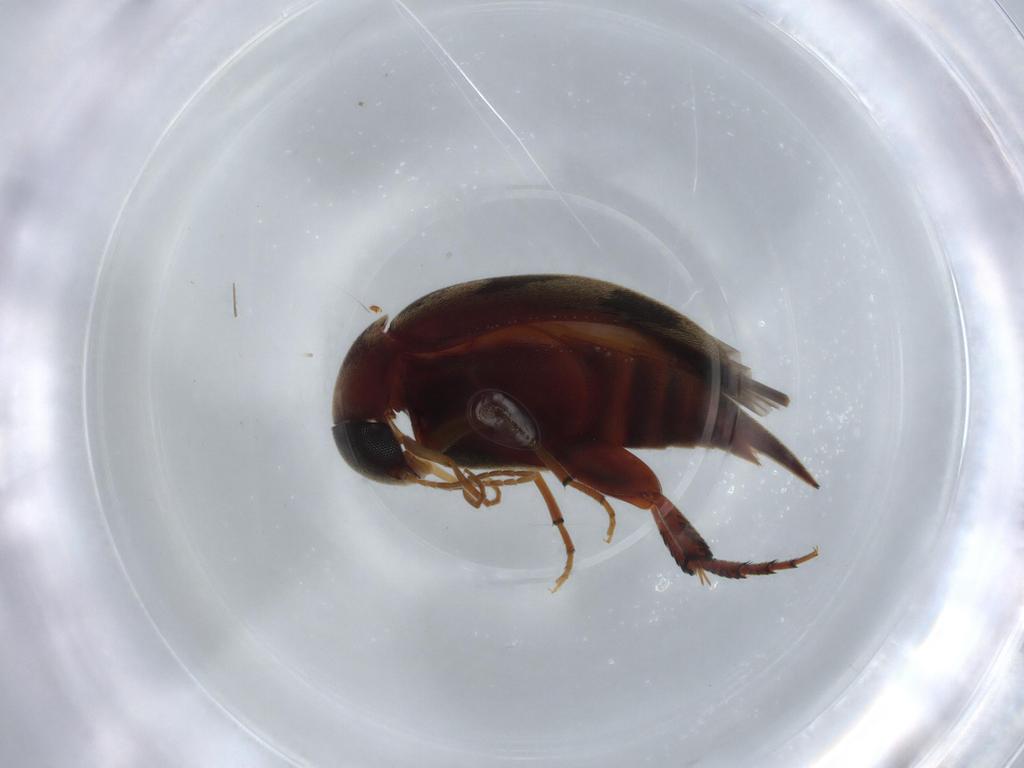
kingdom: Animalia
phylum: Arthropoda
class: Insecta
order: Coleoptera
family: Mordellidae
